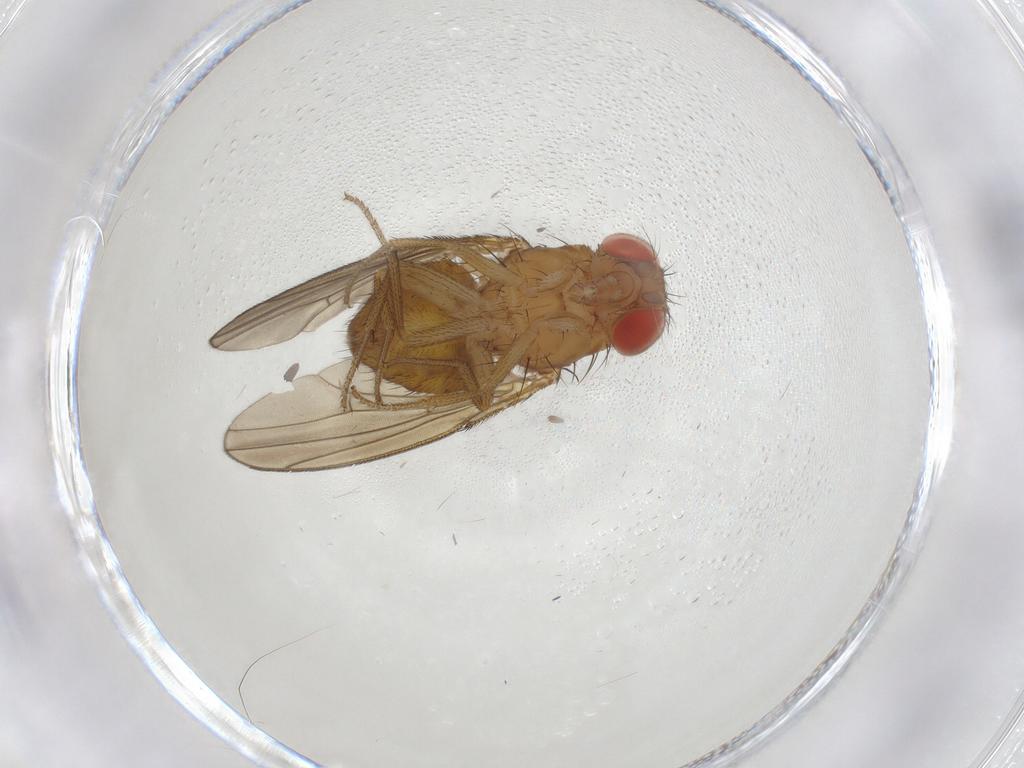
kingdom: Animalia
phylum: Arthropoda
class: Insecta
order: Diptera
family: Drosophilidae
